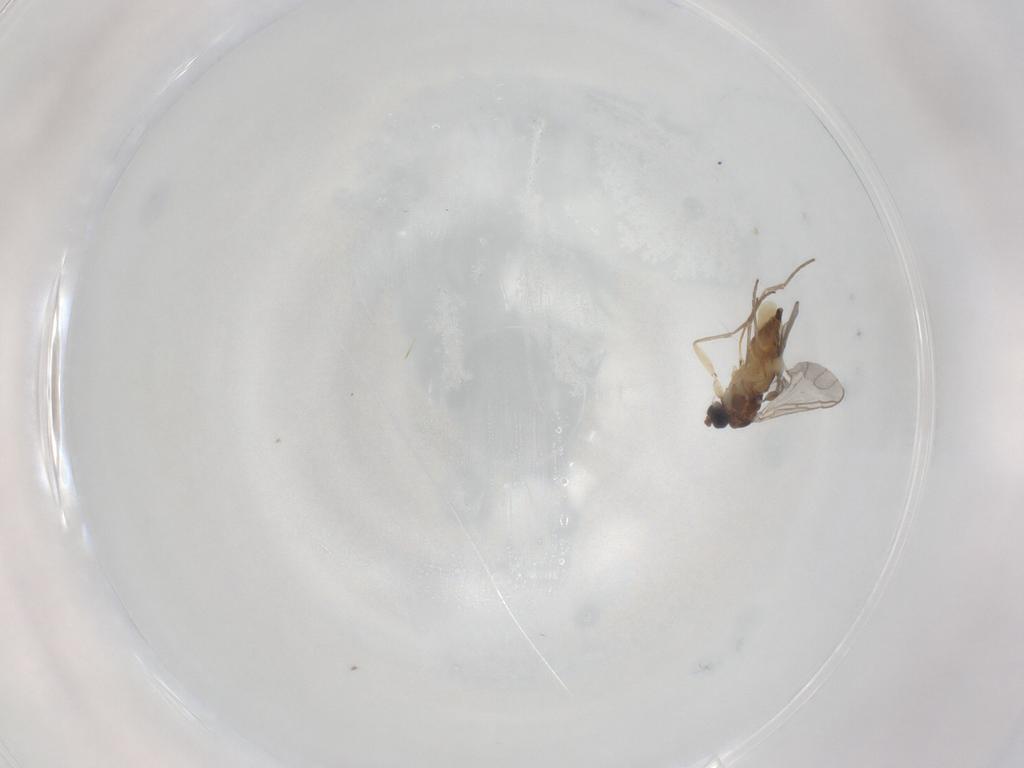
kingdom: Animalia
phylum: Arthropoda
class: Insecta
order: Diptera
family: Sciaridae
